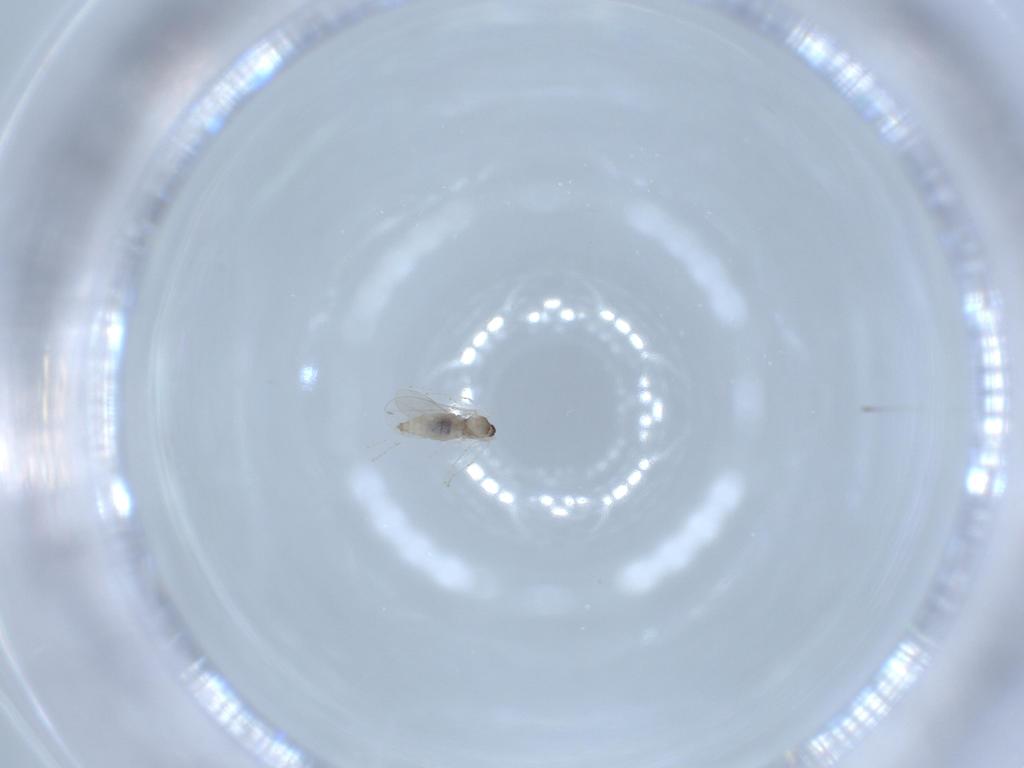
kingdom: Animalia
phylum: Arthropoda
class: Insecta
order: Diptera
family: Cecidomyiidae
